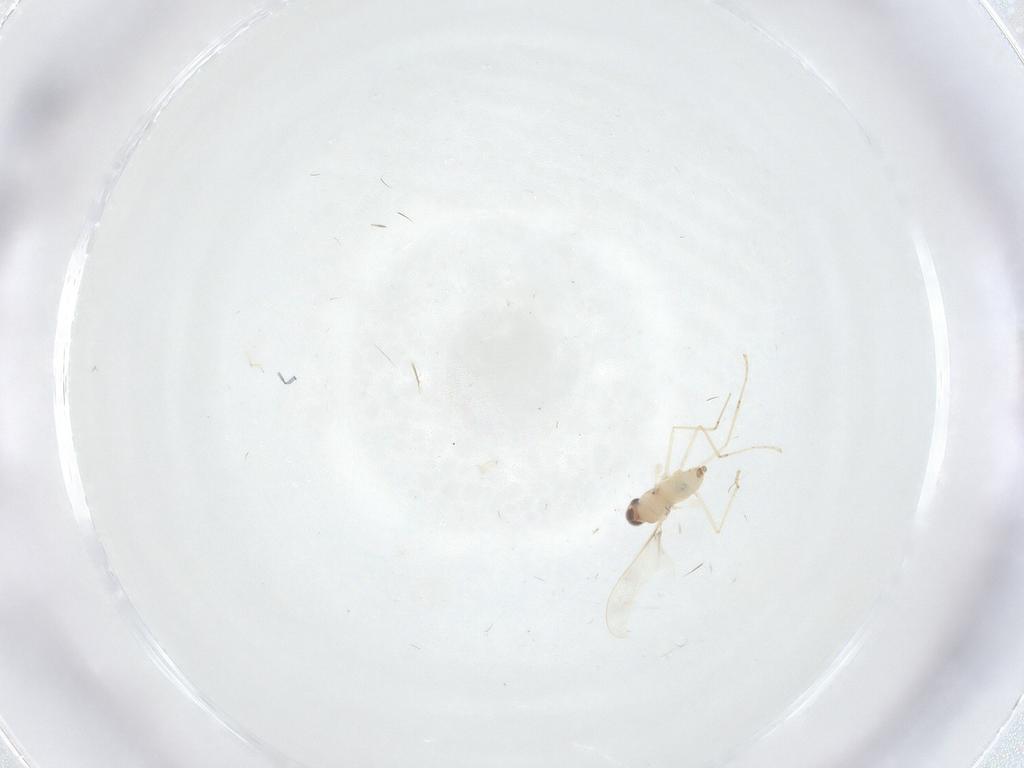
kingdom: Animalia
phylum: Arthropoda
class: Insecta
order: Diptera
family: Cecidomyiidae
